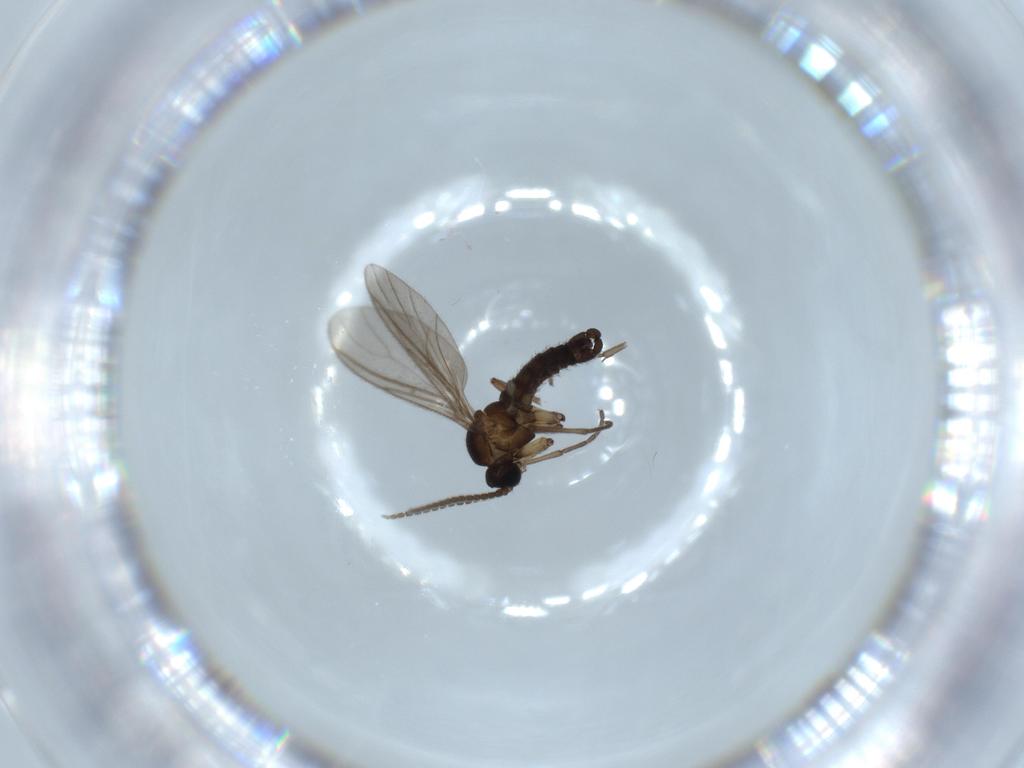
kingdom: Animalia
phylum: Arthropoda
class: Insecta
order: Diptera
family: Sciaridae
